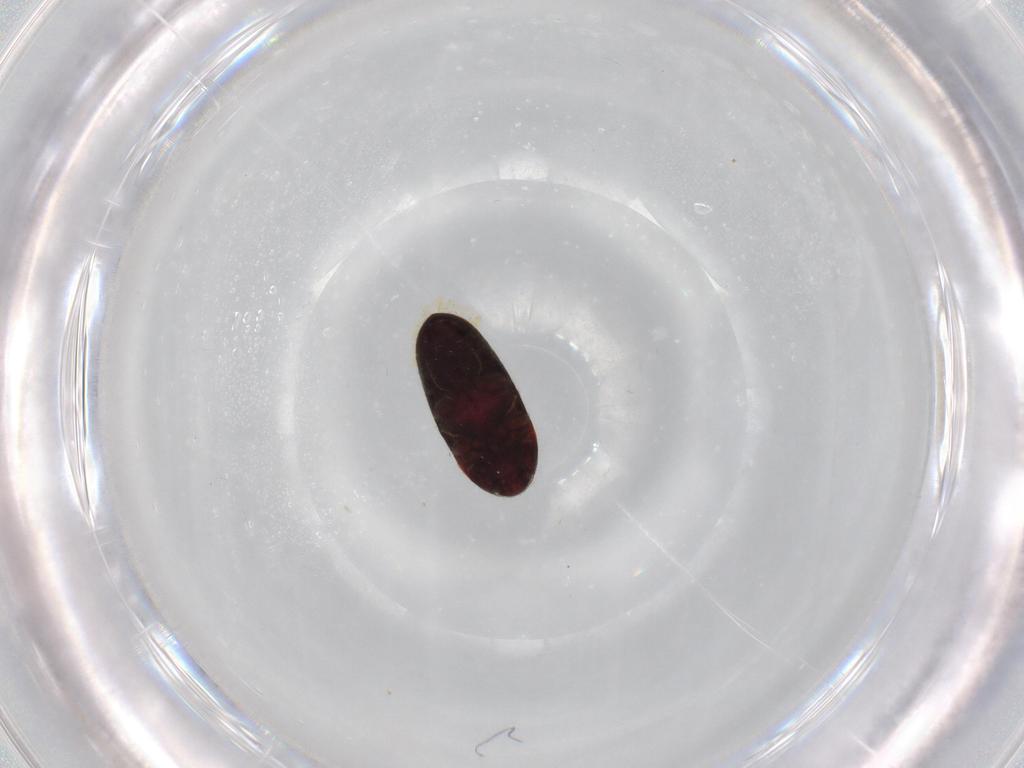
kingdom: Animalia
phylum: Arthropoda
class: Insecta
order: Coleoptera
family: Throscidae
